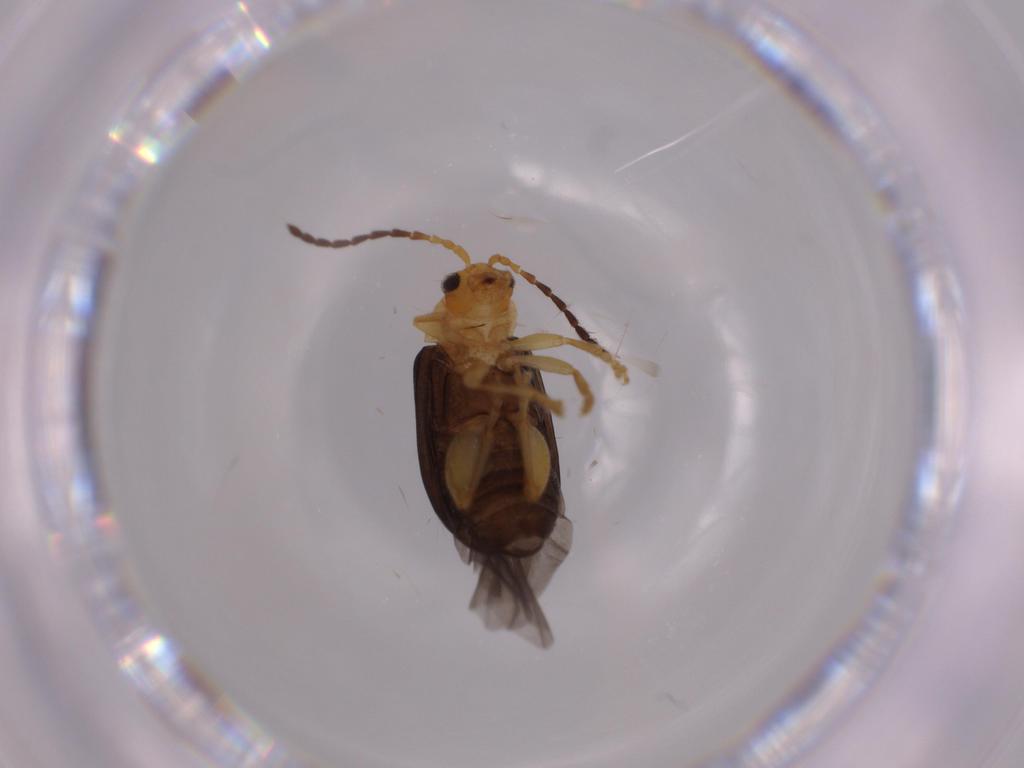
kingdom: Animalia
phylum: Arthropoda
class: Insecta
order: Coleoptera
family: Chrysomelidae
